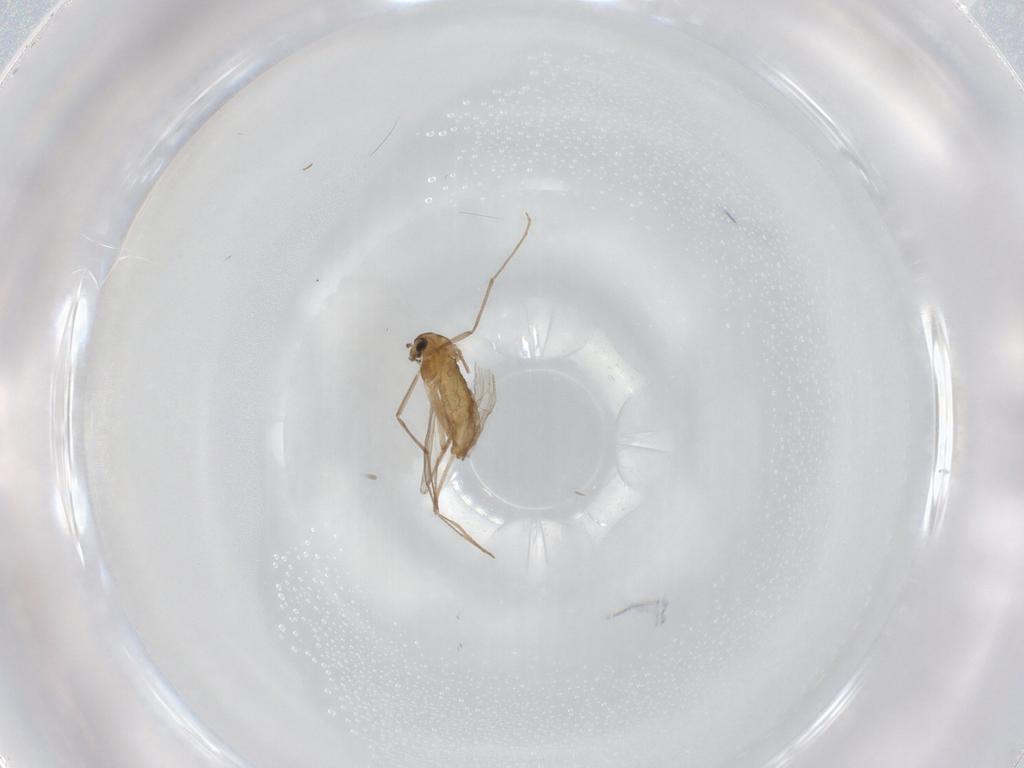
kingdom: Animalia
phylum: Arthropoda
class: Insecta
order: Diptera
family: Chironomidae
